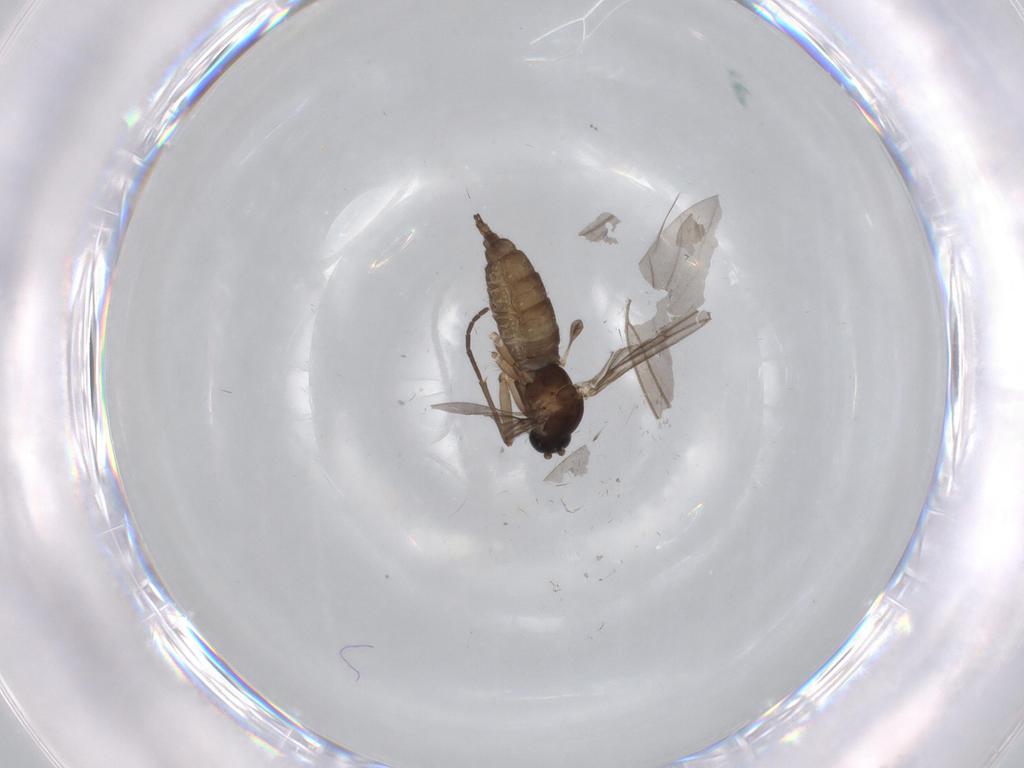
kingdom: Animalia
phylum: Arthropoda
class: Insecta
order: Diptera
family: Sciaridae
